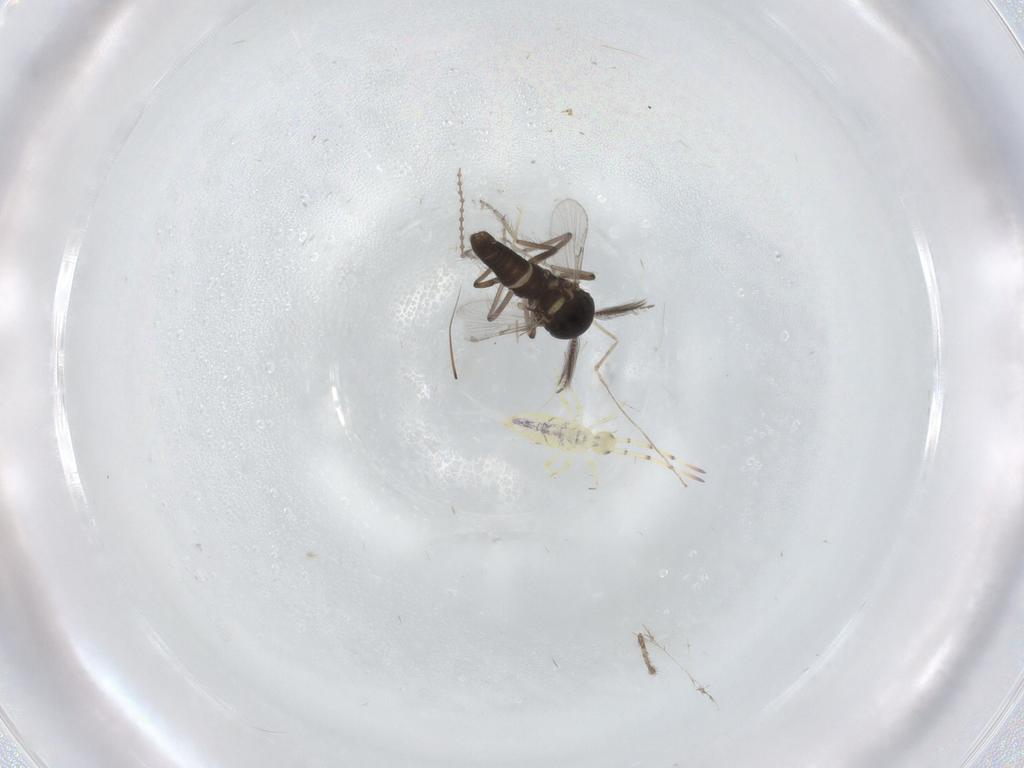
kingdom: Animalia
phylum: Arthropoda
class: Insecta
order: Diptera
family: Ceratopogonidae
